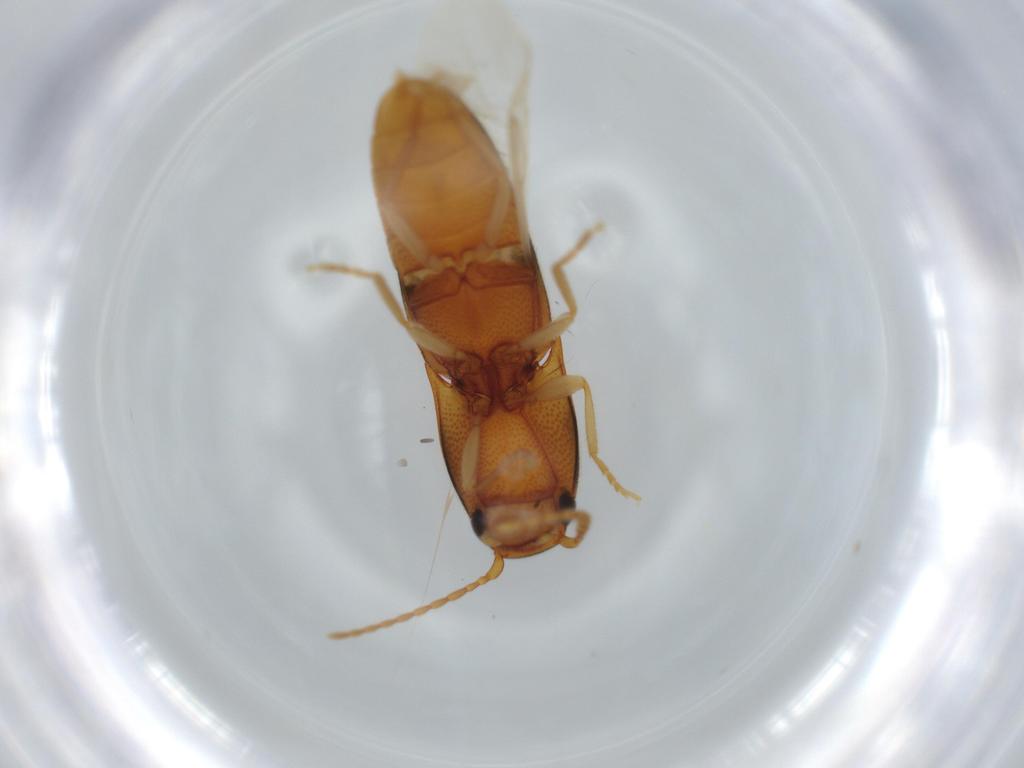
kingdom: Animalia
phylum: Arthropoda
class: Insecta
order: Coleoptera
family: Elateridae
